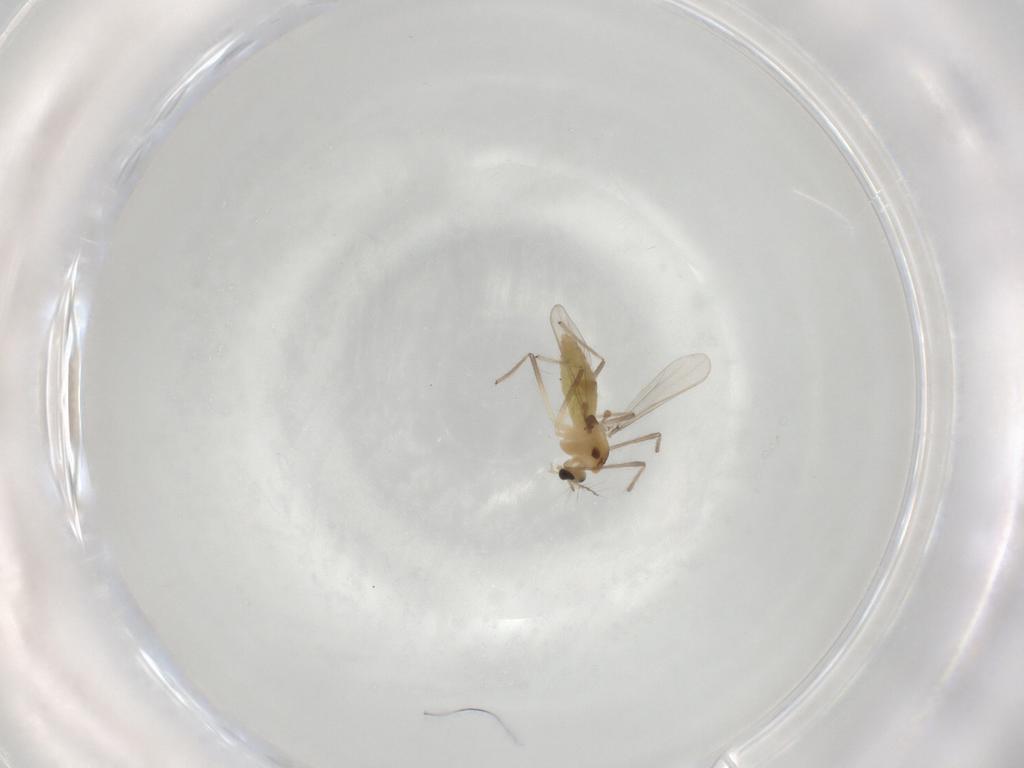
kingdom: Animalia
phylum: Arthropoda
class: Insecta
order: Diptera
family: Chironomidae
